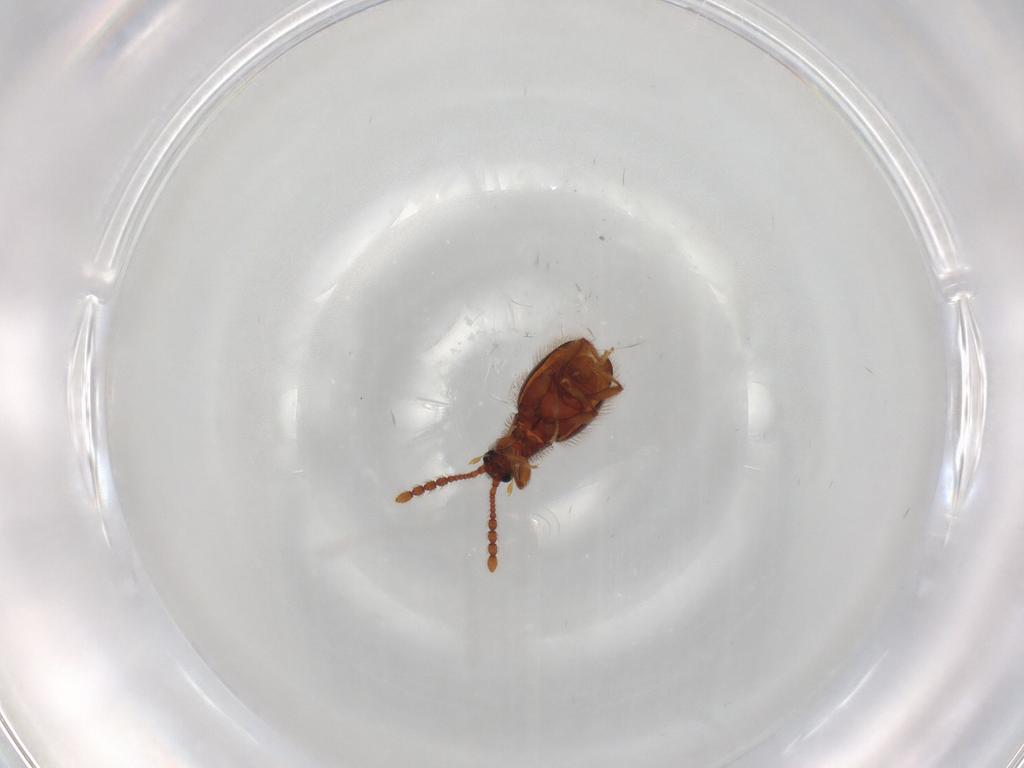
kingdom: Animalia
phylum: Arthropoda
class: Insecta
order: Coleoptera
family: Staphylinidae
